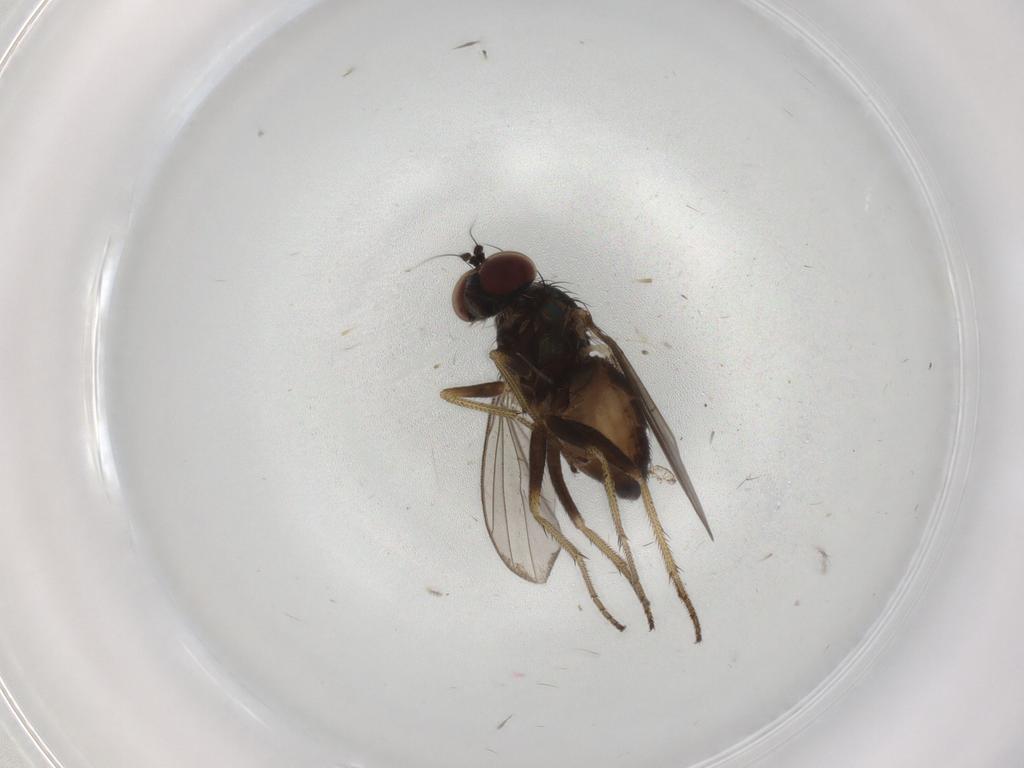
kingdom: Animalia
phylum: Arthropoda
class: Insecta
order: Diptera
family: Dolichopodidae
